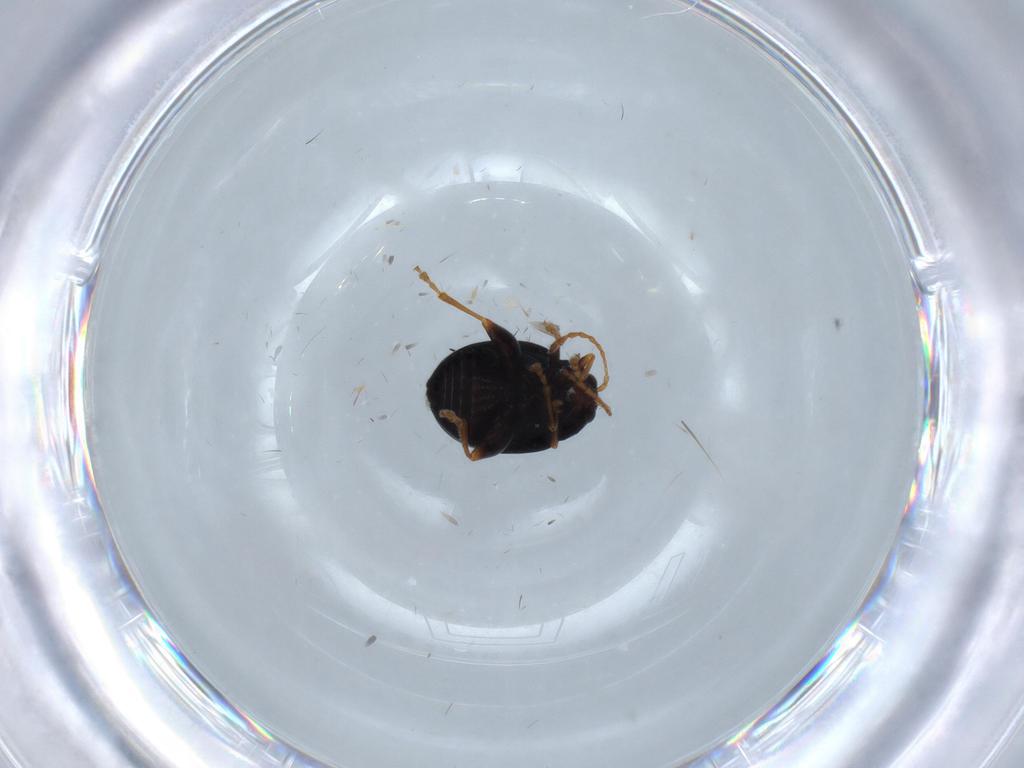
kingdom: Animalia
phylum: Arthropoda
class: Insecta
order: Coleoptera
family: Chrysomelidae
